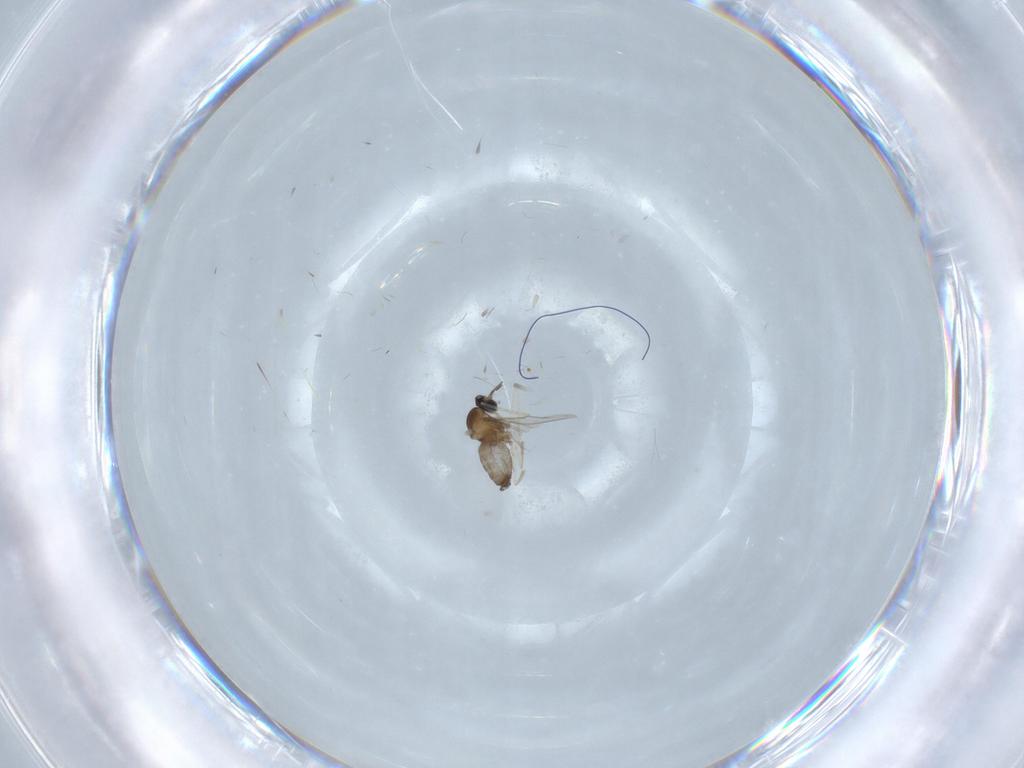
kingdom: Animalia
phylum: Arthropoda
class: Insecta
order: Diptera
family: Cecidomyiidae
